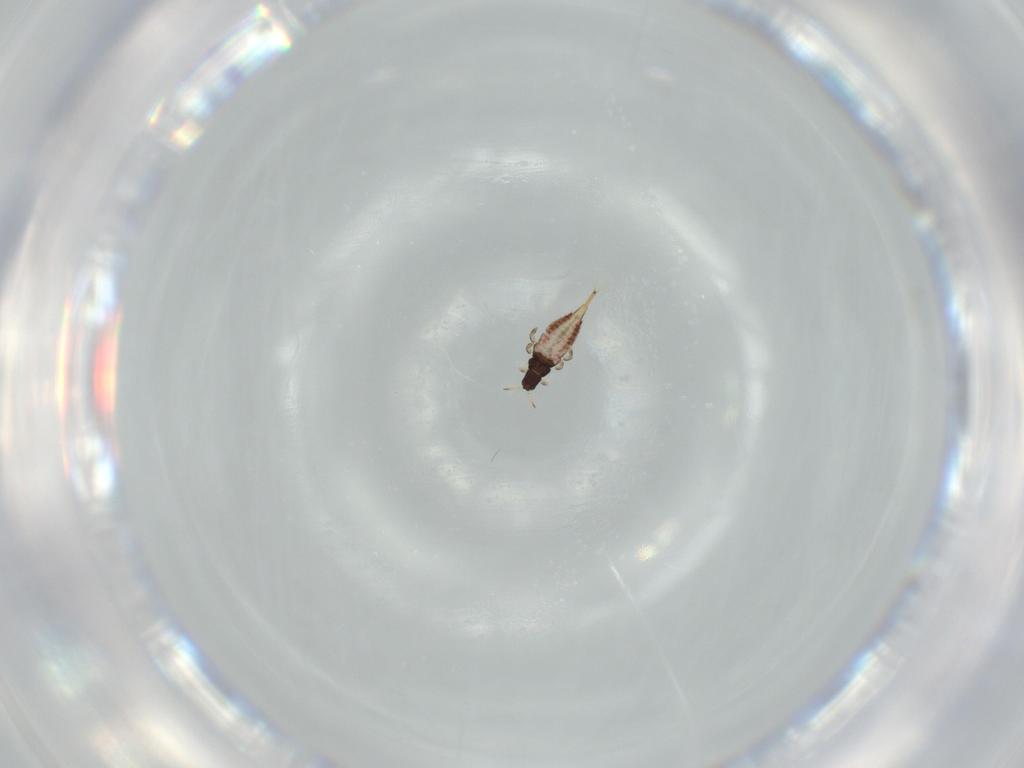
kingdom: Animalia
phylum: Arthropoda
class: Insecta
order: Thysanoptera
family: Phlaeothripidae
